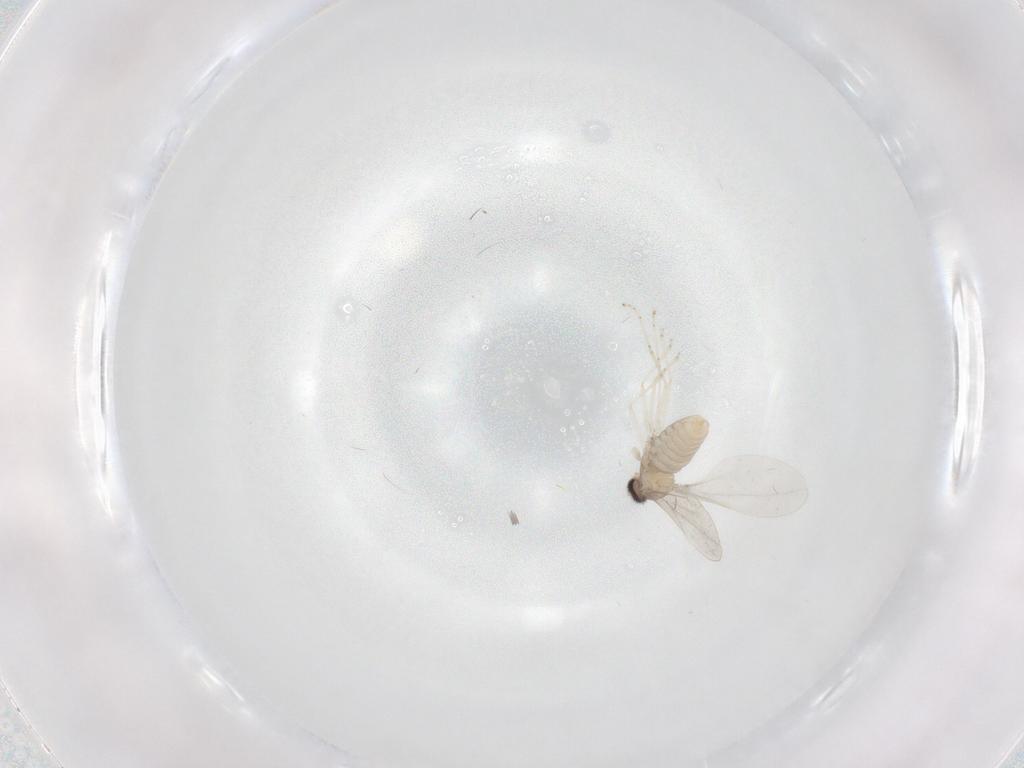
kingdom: Animalia
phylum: Arthropoda
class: Insecta
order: Diptera
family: Cecidomyiidae
